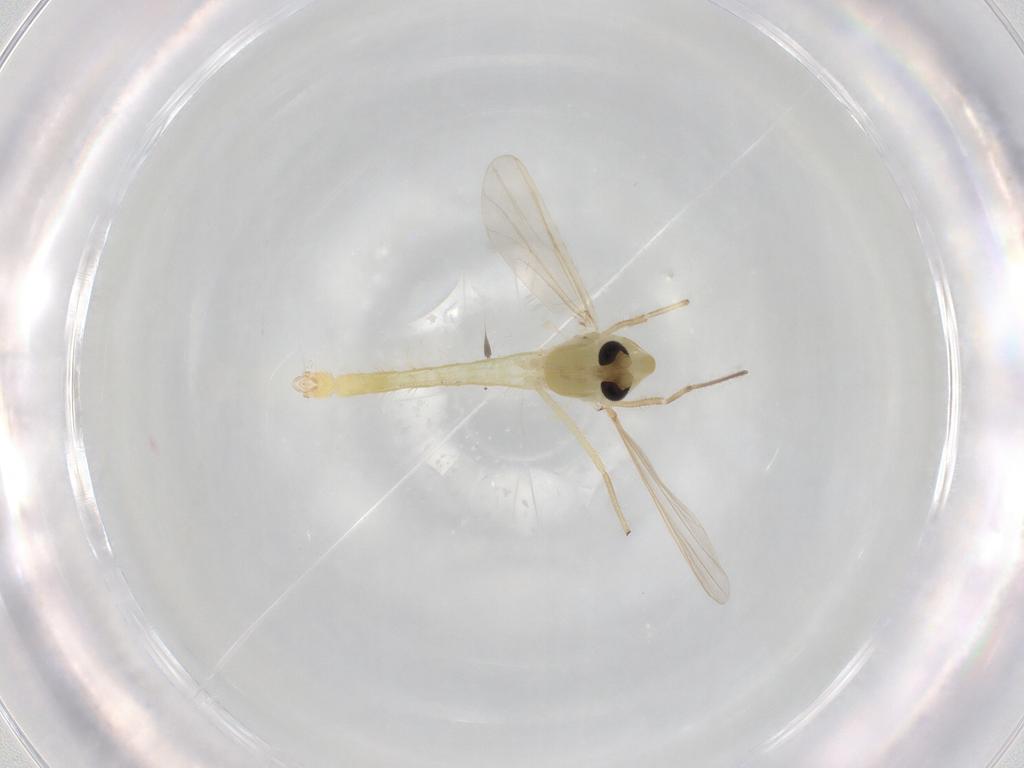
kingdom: Animalia
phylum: Arthropoda
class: Insecta
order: Diptera
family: Chironomidae
